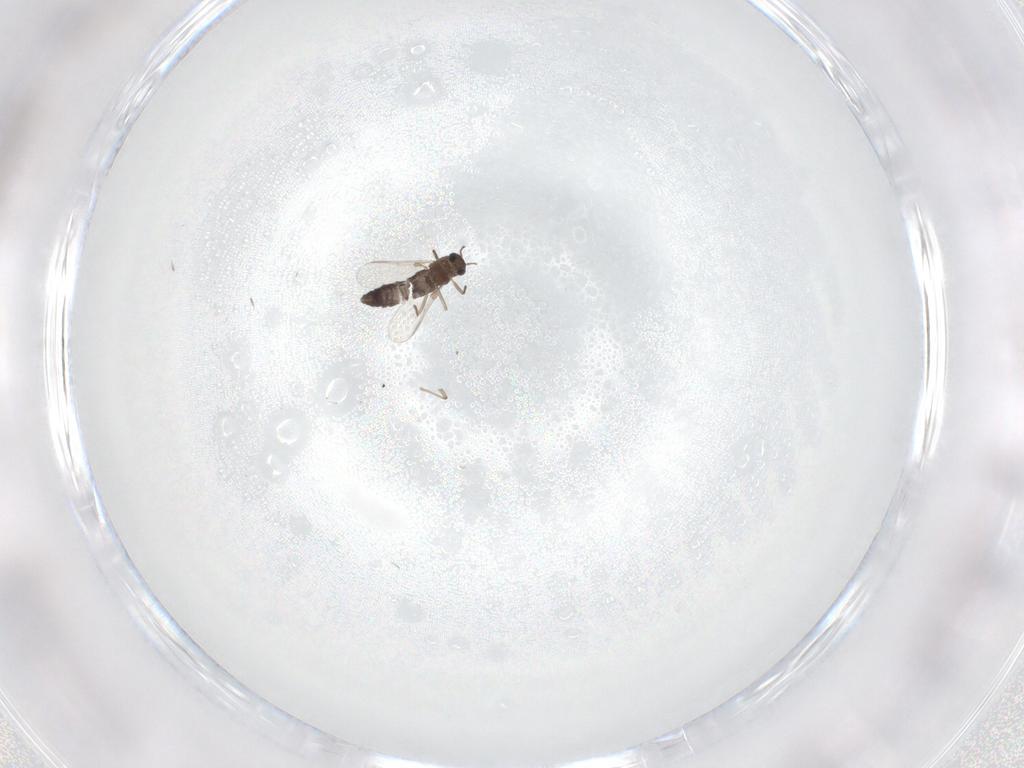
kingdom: Animalia
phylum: Arthropoda
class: Insecta
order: Diptera
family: Chironomidae
